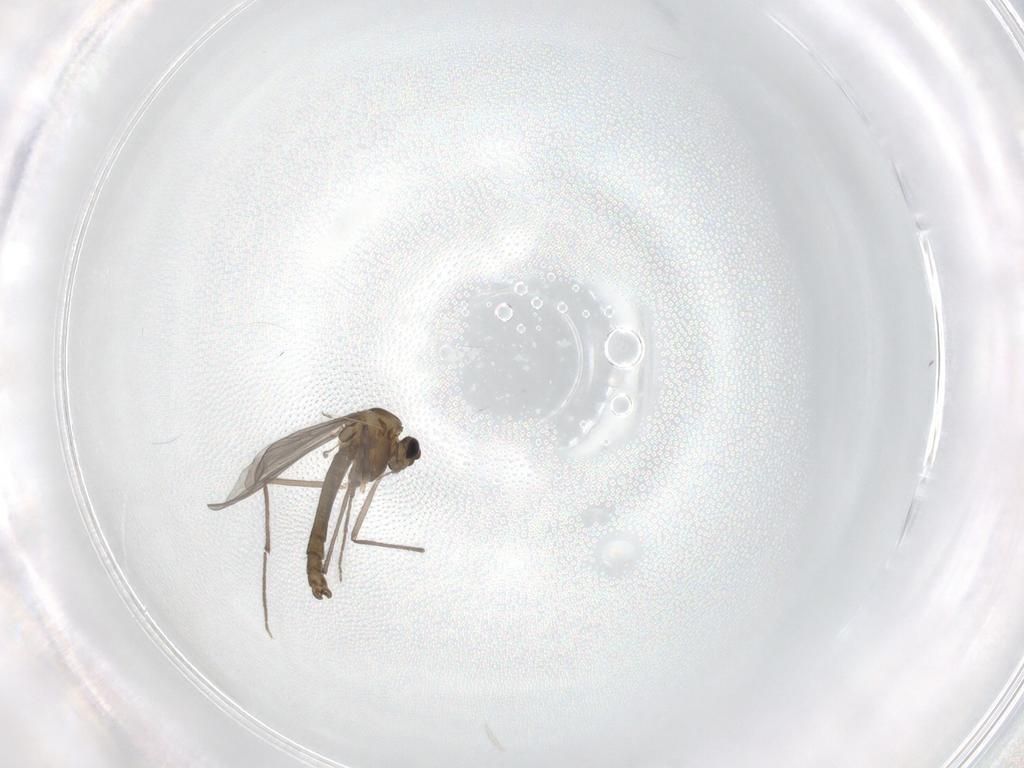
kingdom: Animalia
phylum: Arthropoda
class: Insecta
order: Diptera
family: Chironomidae
